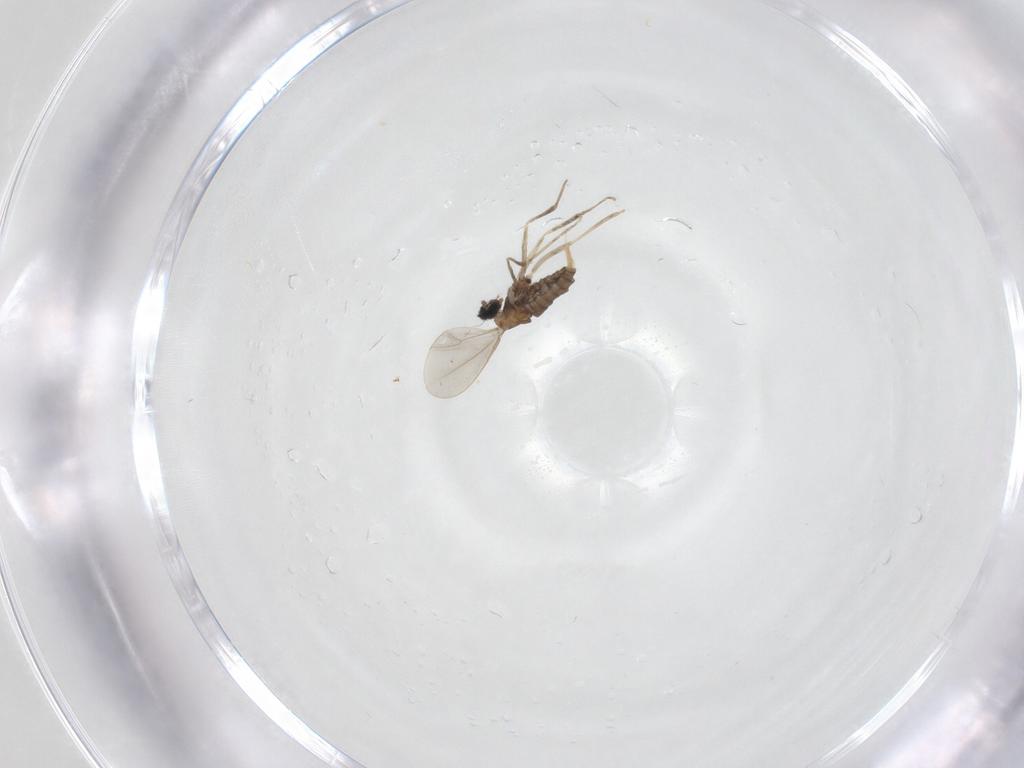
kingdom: Animalia
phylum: Arthropoda
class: Insecta
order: Diptera
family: Cecidomyiidae
